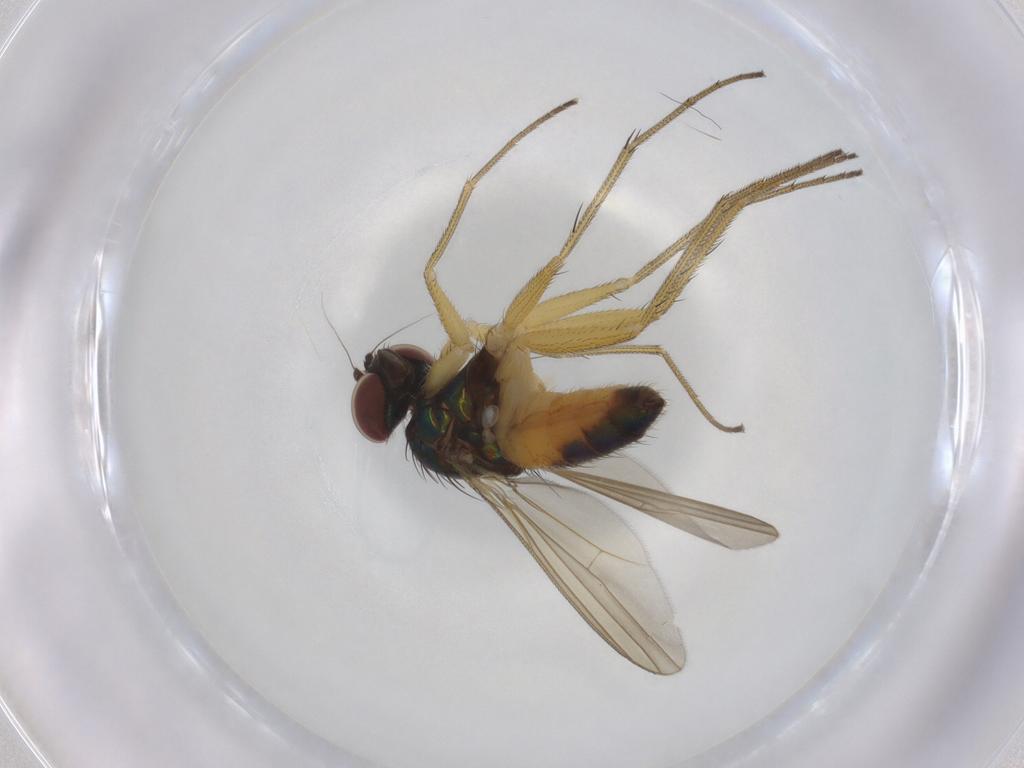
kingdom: Animalia
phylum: Arthropoda
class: Insecta
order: Diptera
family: Dolichopodidae
